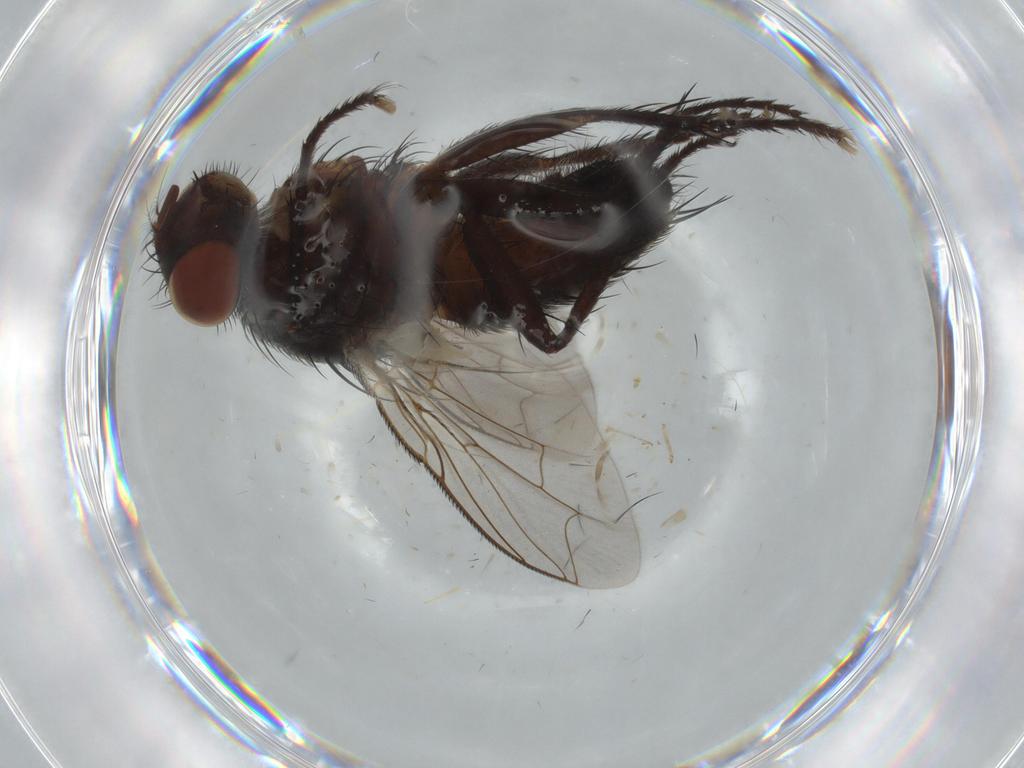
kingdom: Animalia
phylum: Arthropoda
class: Insecta
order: Diptera
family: Sarcophagidae
